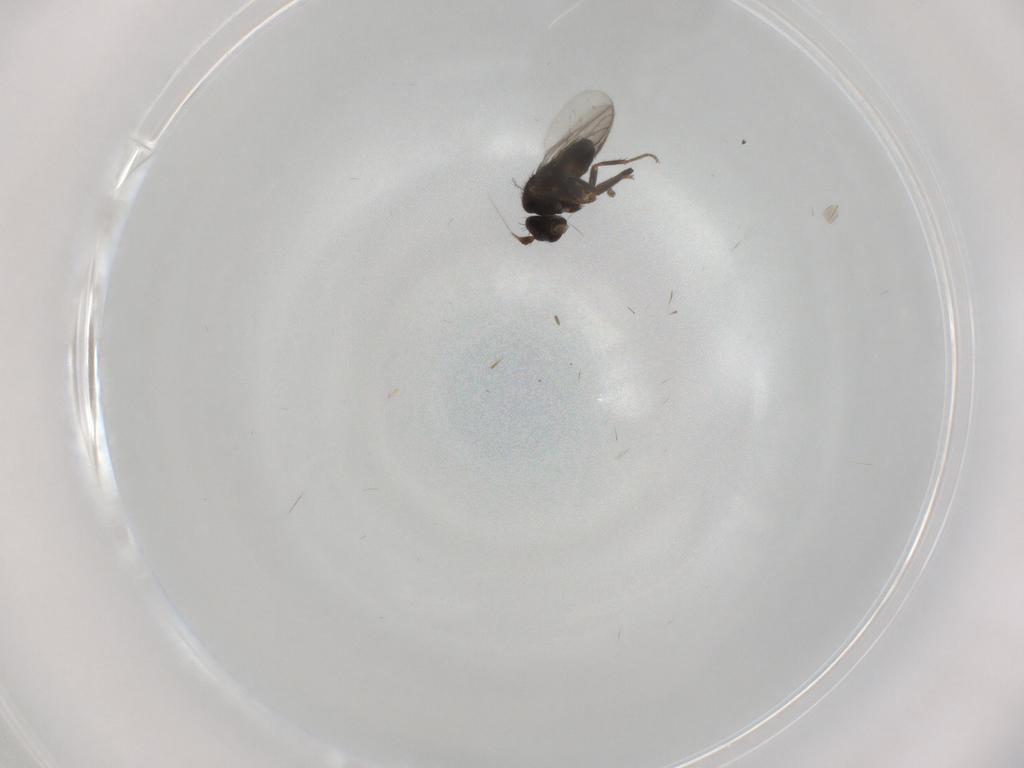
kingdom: Animalia
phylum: Arthropoda
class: Insecta
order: Diptera
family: Sphaeroceridae
